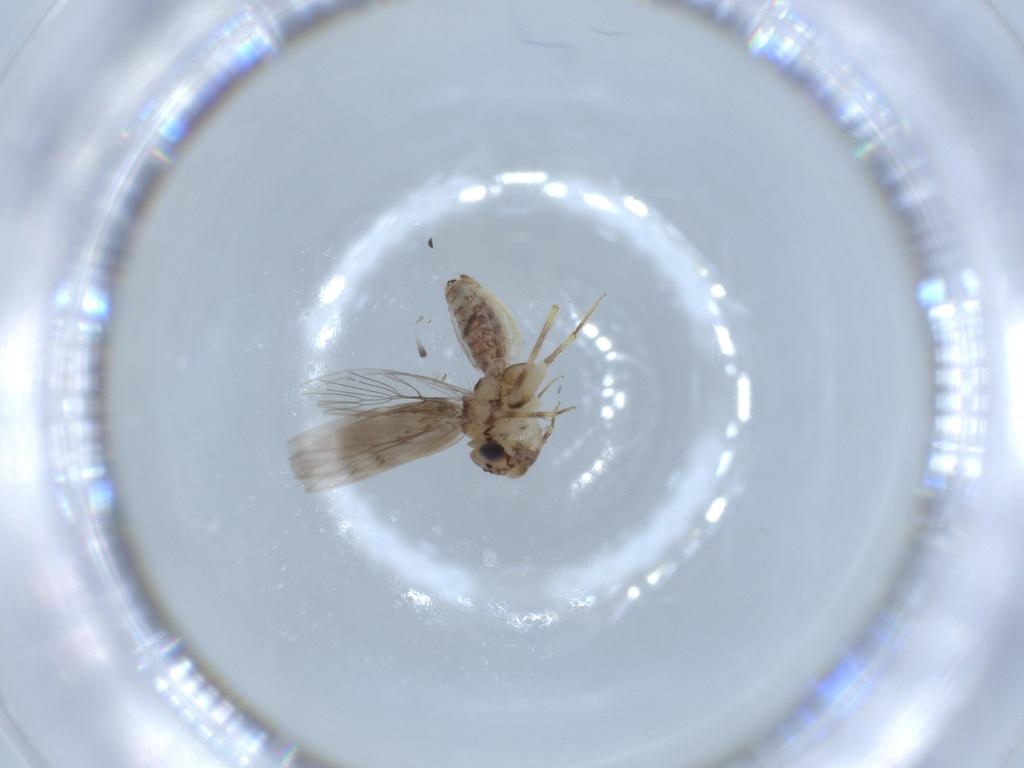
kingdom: Animalia
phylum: Arthropoda
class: Insecta
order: Psocodea
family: Lepidopsocidae
